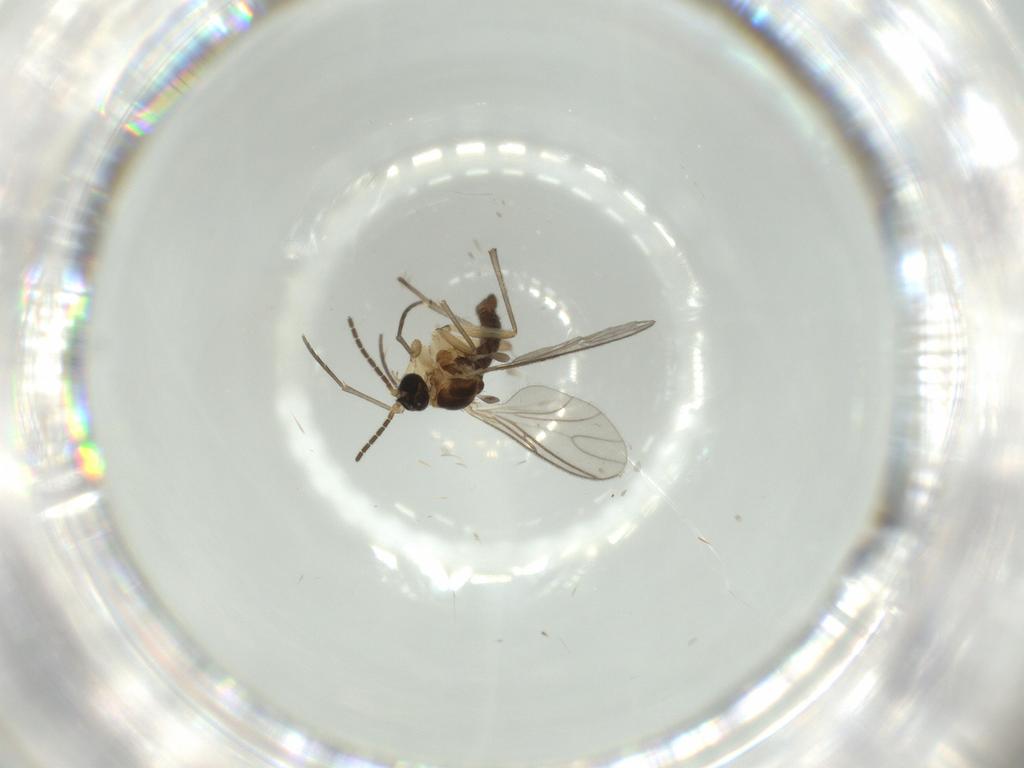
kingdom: Animalia
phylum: Arthropoda
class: Insecta
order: Diptera
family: Sciaridae
